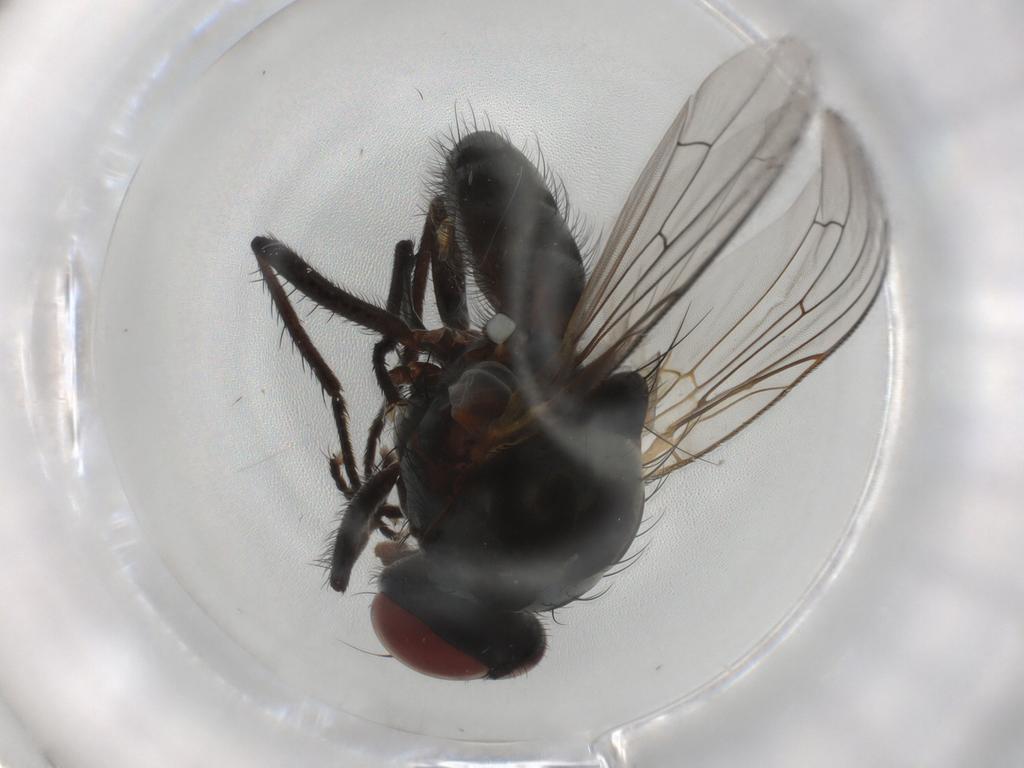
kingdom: Animalia
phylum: Arthropoda
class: Insecta
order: Diptera
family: Anthomyiidae
